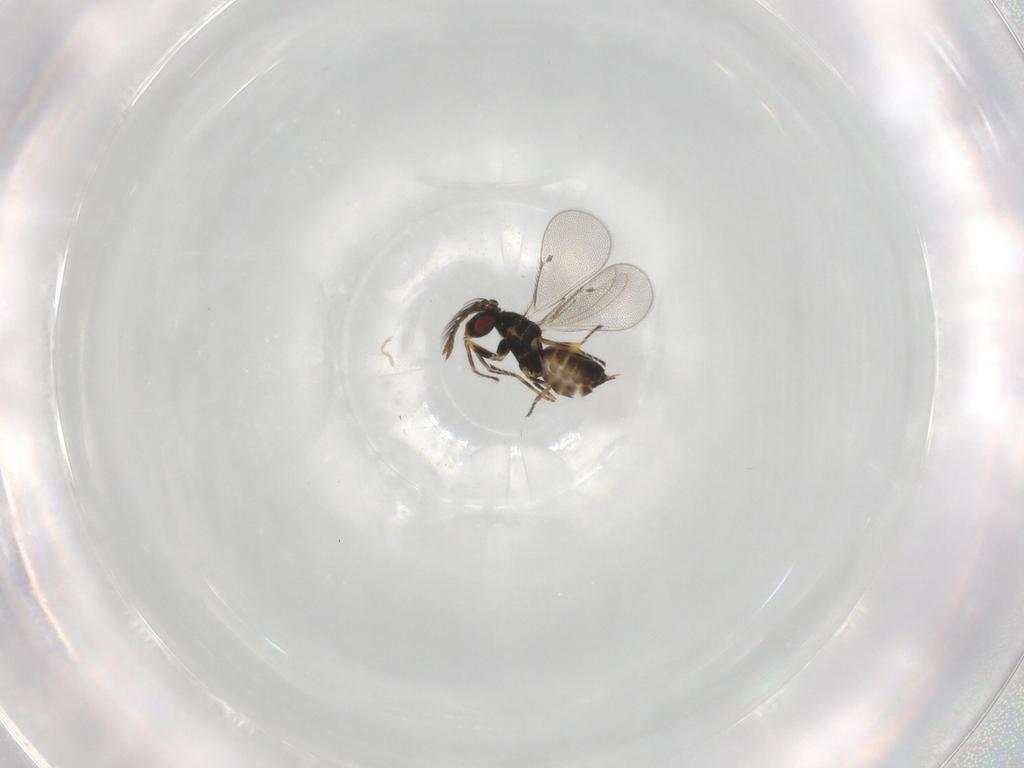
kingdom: Animalia
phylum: Arthropoda
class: Insecta
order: Hymenoptera
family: Eulophidae
